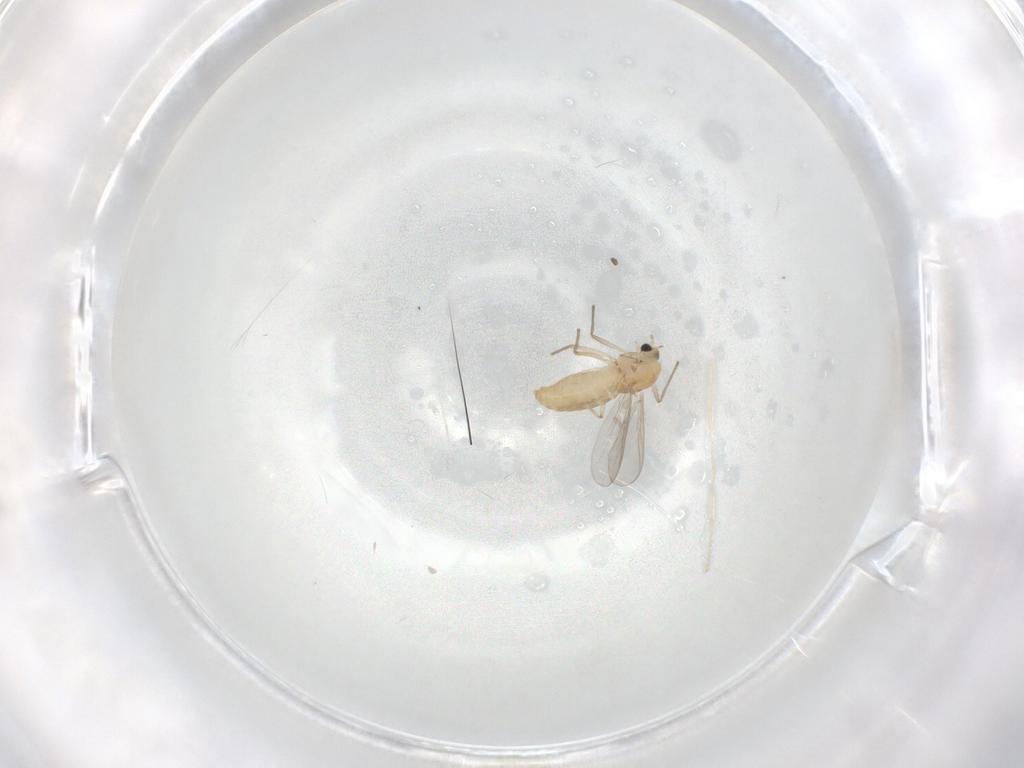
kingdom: Animalia
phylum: Arthropoda
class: Insecta
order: Diptera
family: Chironomidae
